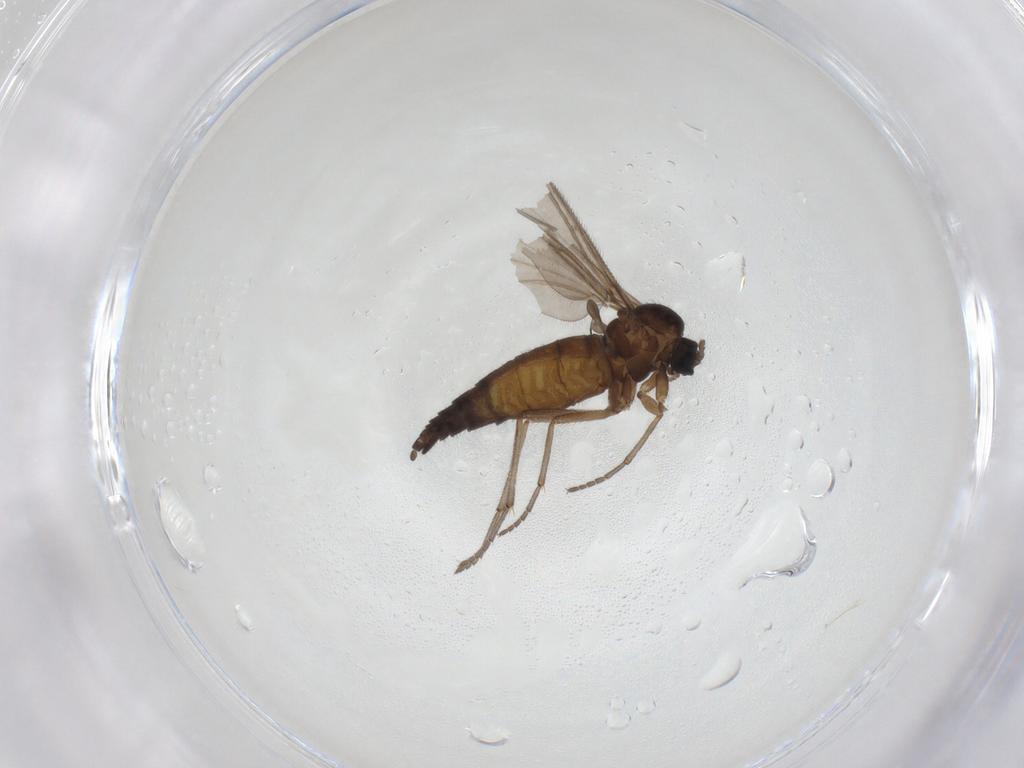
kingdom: Animalia
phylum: Arthropoda
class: Insecta
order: Diptera
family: Sciaridae
